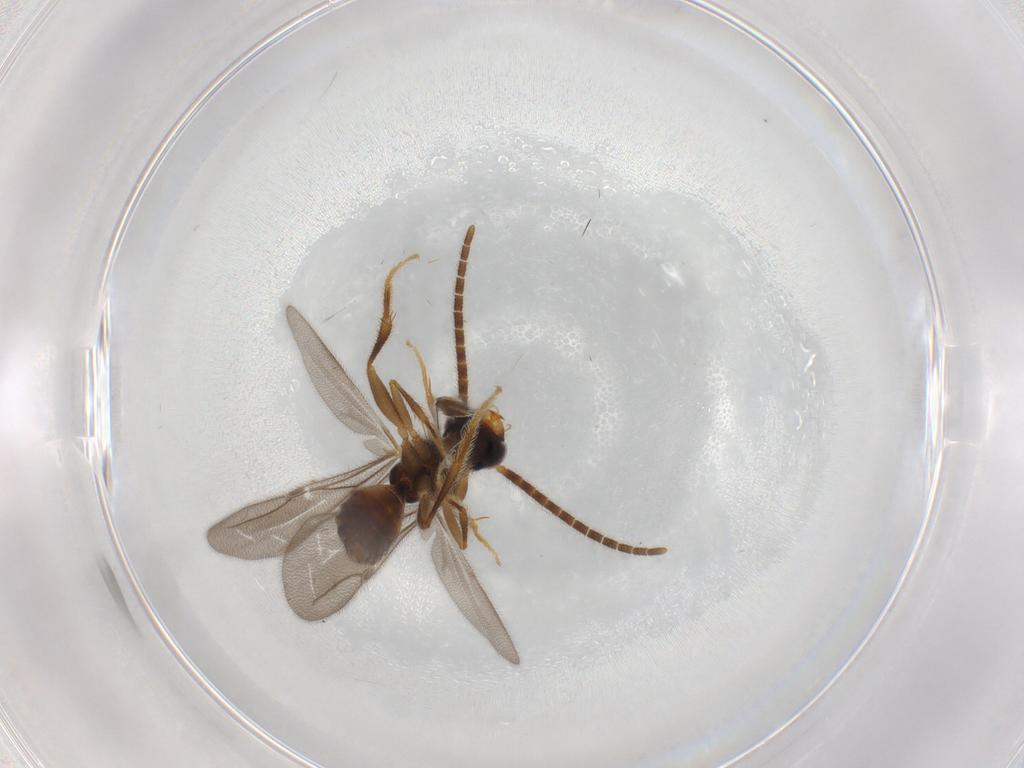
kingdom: Animalia
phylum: Arthropoda
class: Insecta
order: Hymenoptera
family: Bethylidae
